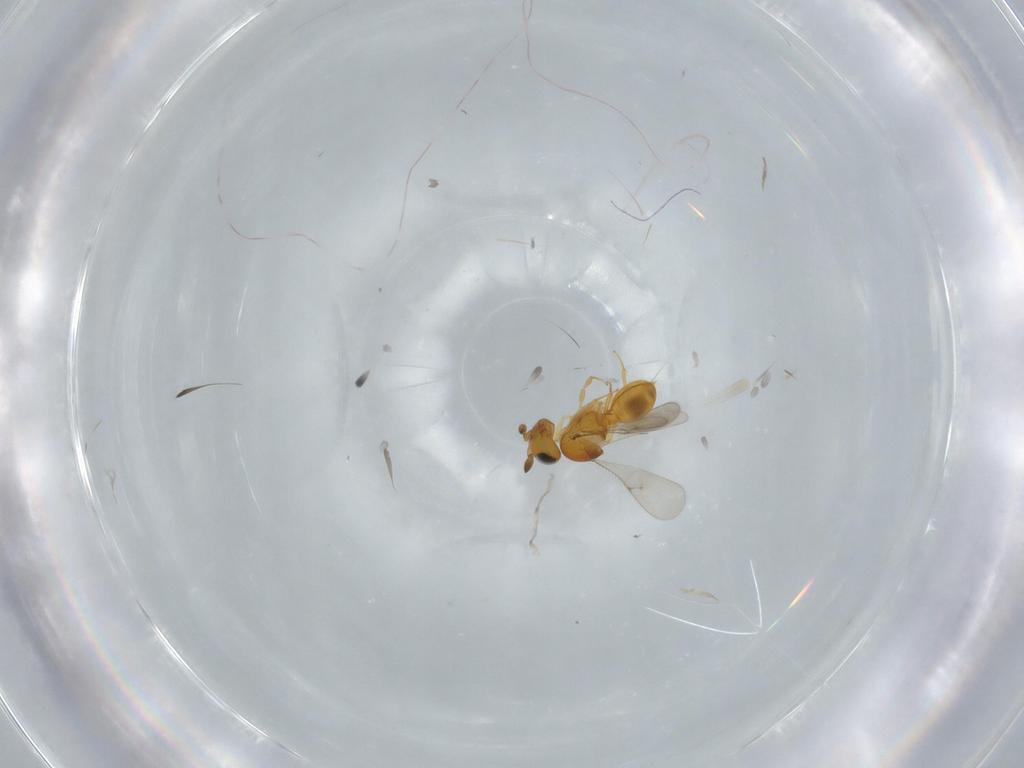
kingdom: Animalia
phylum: Arthropoda
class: Insecta
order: Hymenoptera
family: Scelionidae
